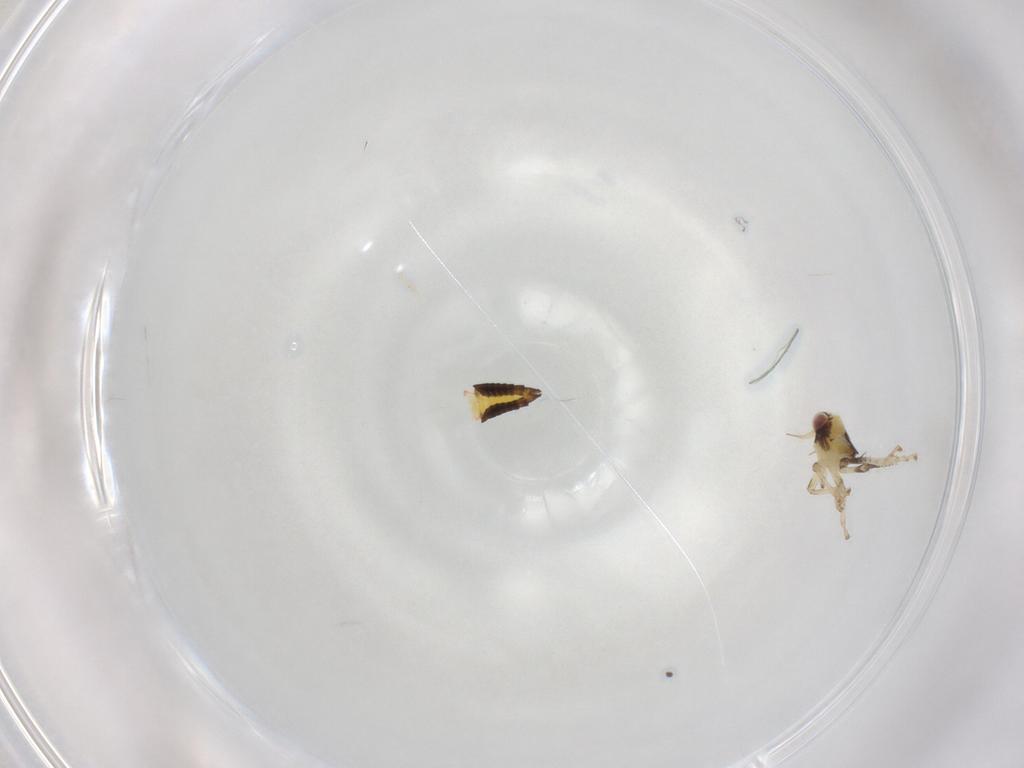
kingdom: Animalia
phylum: Arthropoda
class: Insecta
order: Hemiptera
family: Cicadellidae
